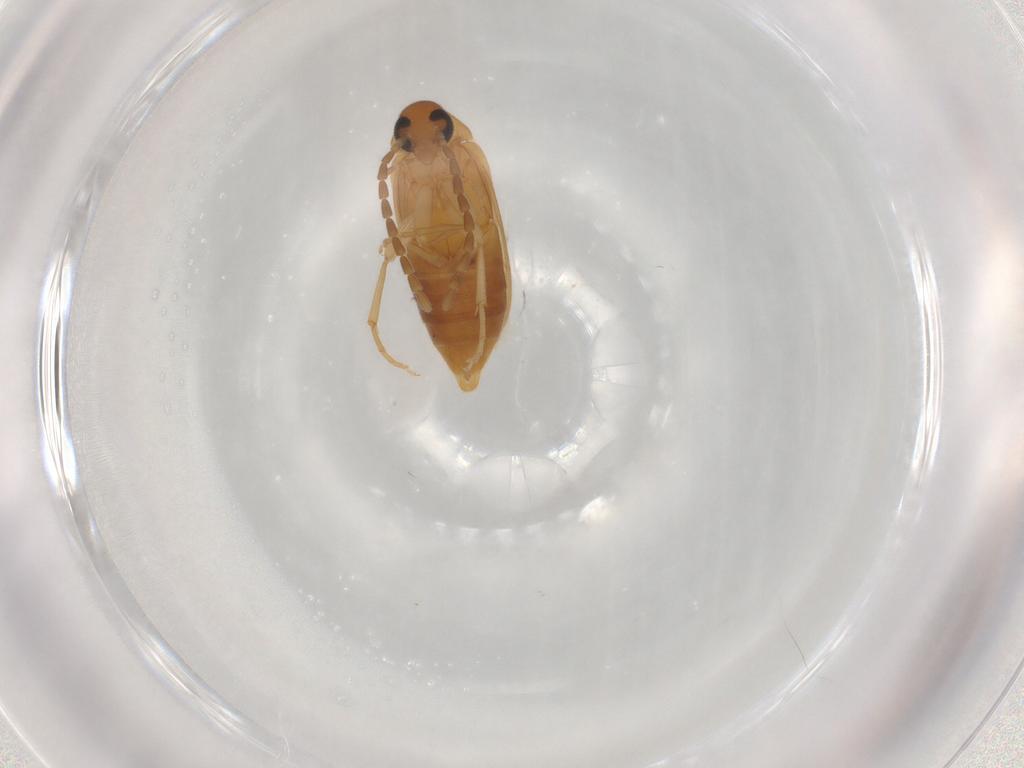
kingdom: Animalia
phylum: Arthropoda
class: Insecta
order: Coleoptera
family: Scraptiidae
